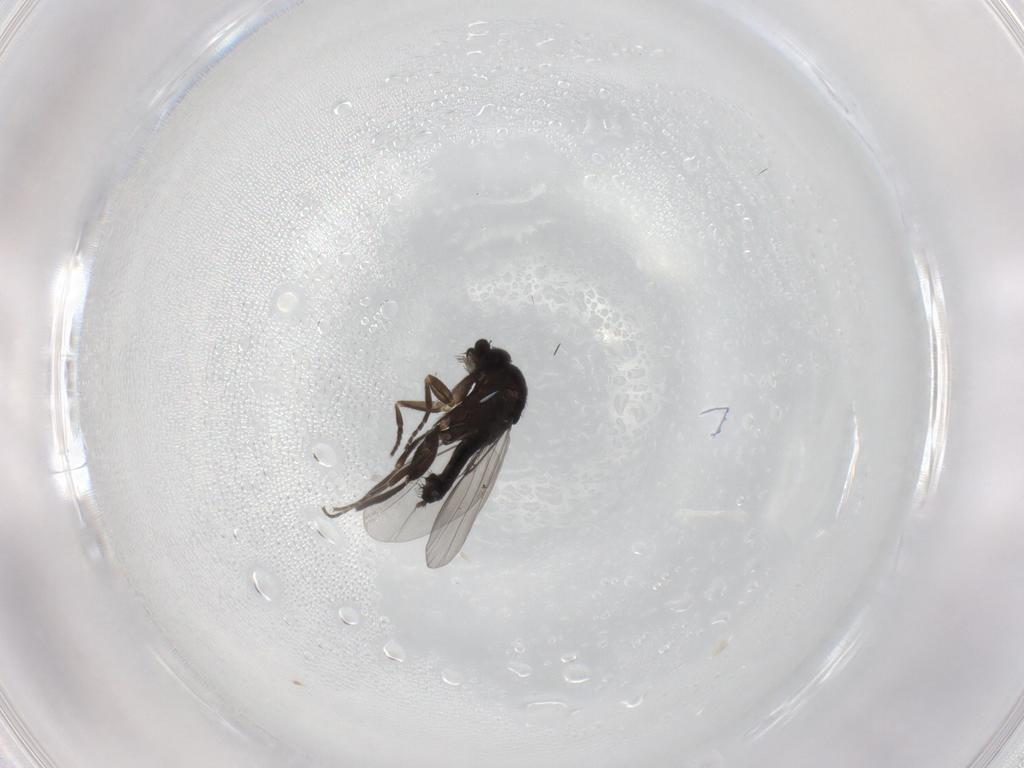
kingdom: Animalia
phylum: Arthropoda
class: Insecta
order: Diptera
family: Phoridae
